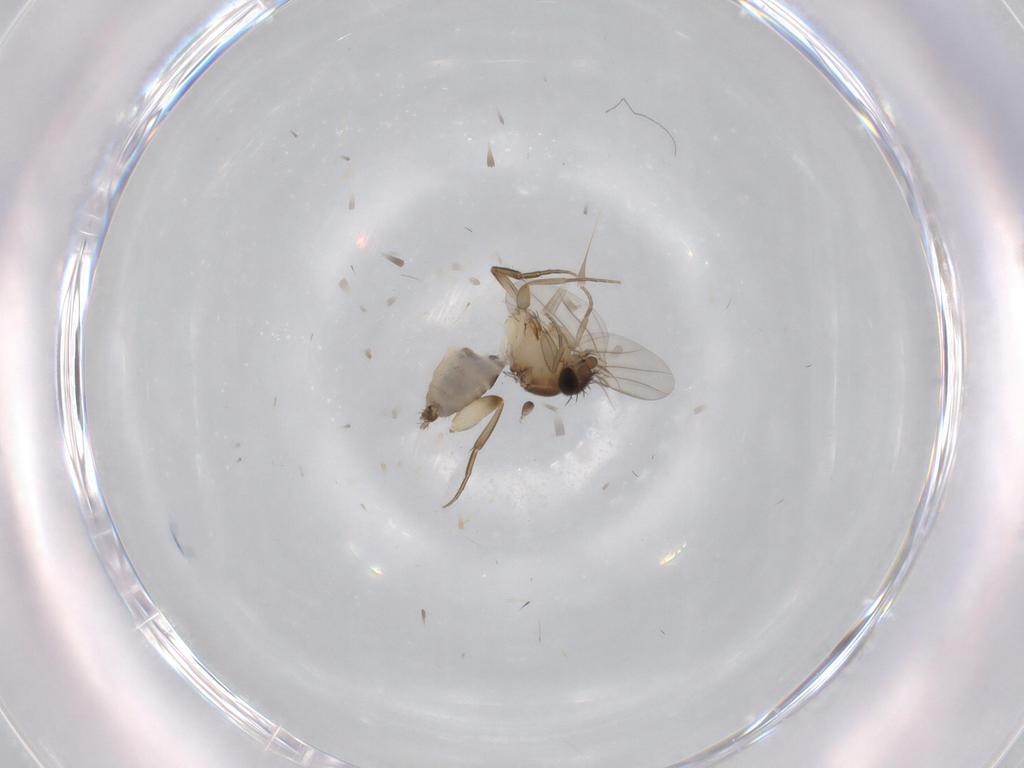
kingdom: Animalia
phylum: Arthropoda
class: Insecta
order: Diptera
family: Phoridae
